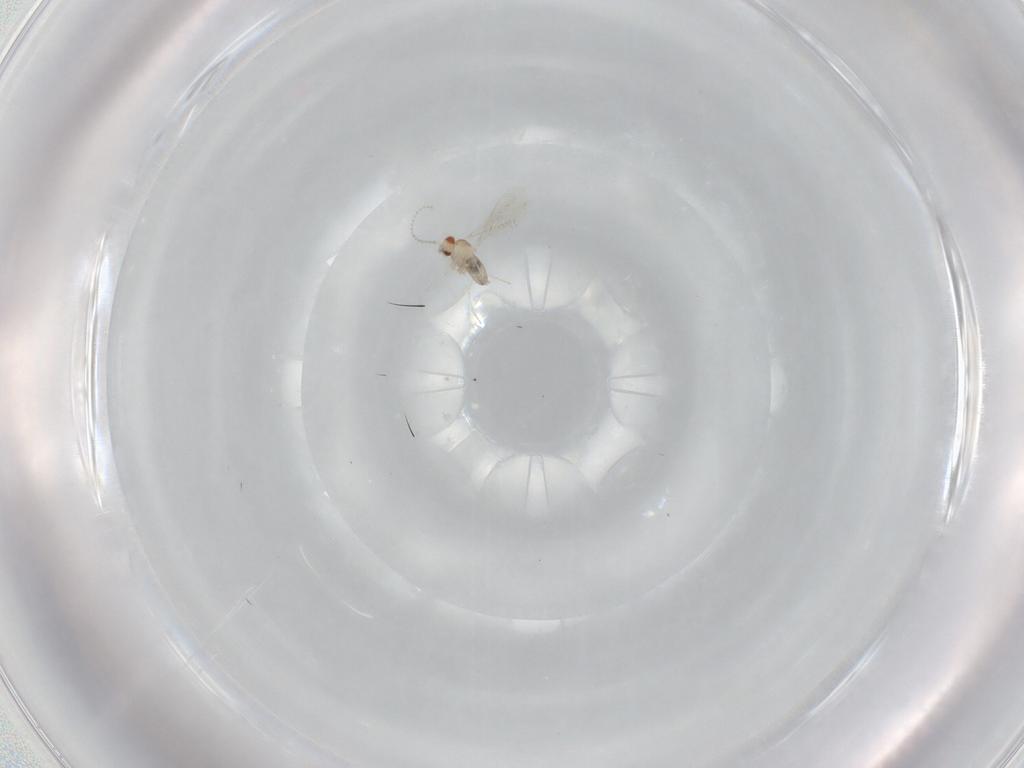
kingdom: Animalia
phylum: Arthropoda
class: Insecta
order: Diptera
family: Cecidomyiidae
